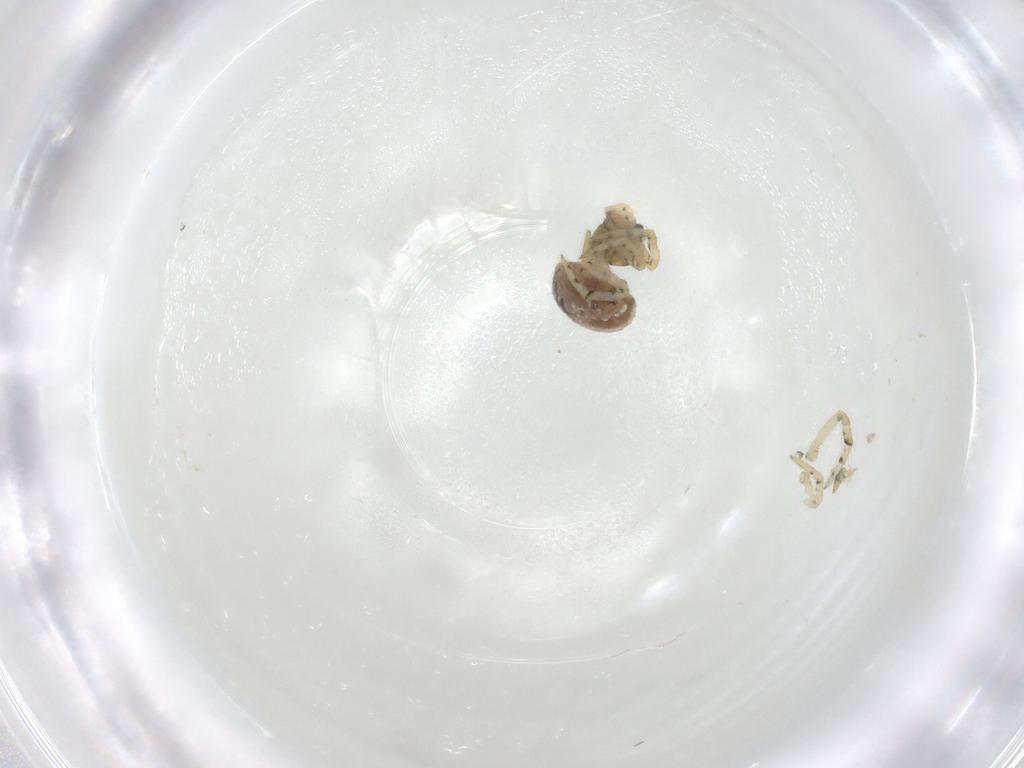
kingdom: Animalia
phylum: Arthropoda
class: Arachnida
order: Araneae
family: Theridiidae
